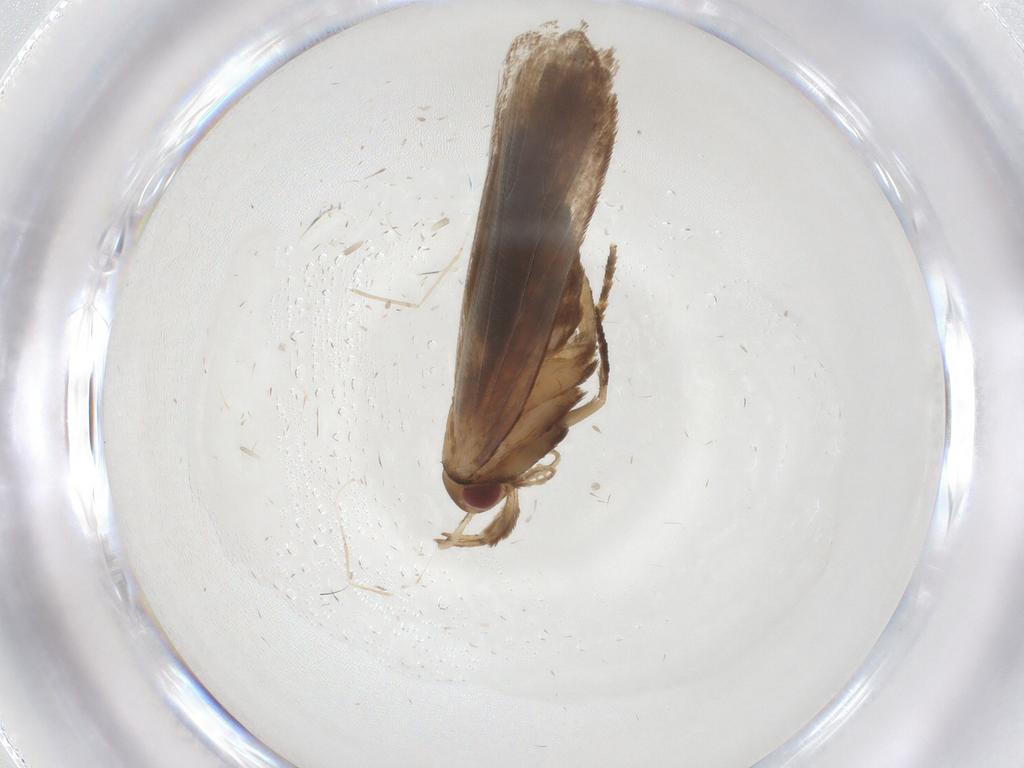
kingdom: Animalia
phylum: Arthropoda
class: Insecta
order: Lepidoptera
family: Gelechiidae
